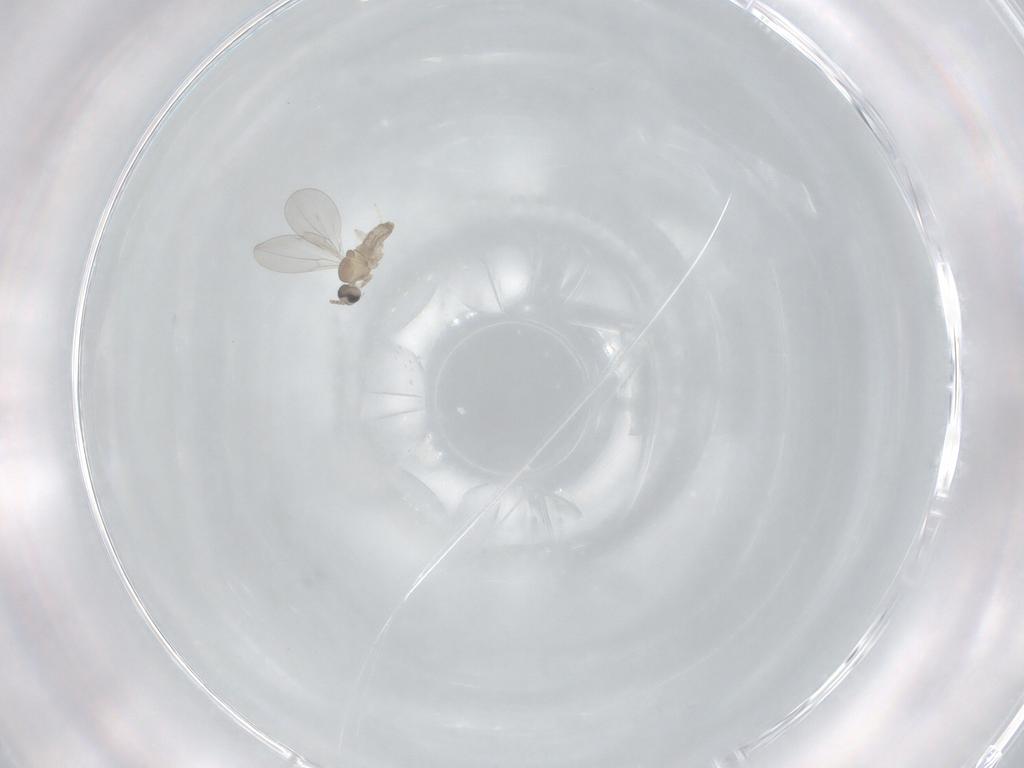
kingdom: Animalia
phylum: Arthropoda
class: Insecta
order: Diptera
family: Cecidomyiidae
